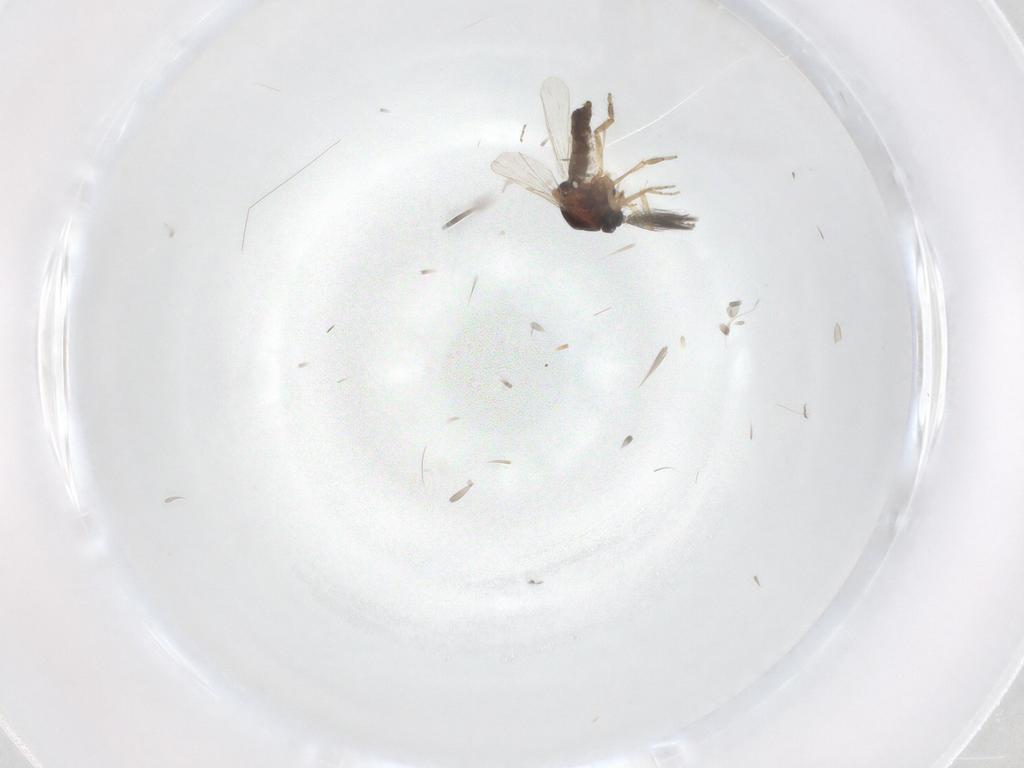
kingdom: Animalia
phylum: Arthropoda
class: Insecta
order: Diptera
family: Ceratopogonidae
